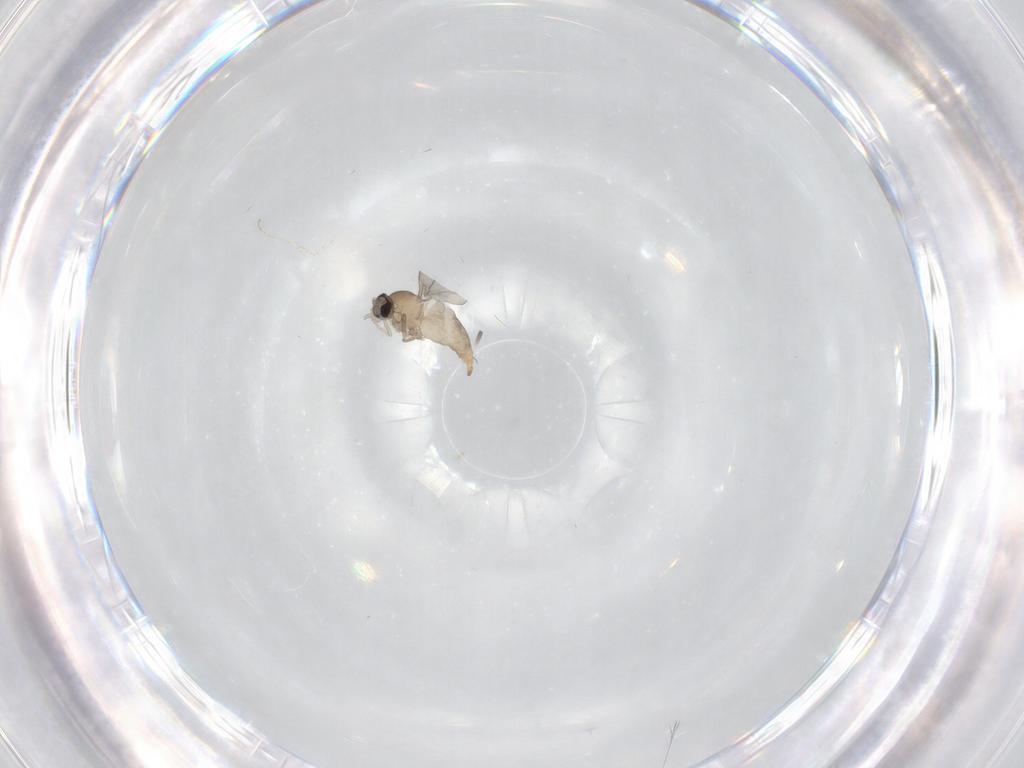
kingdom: Animalia
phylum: Arthropoda
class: Insecta
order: Diptera
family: Cecidomyiidae
